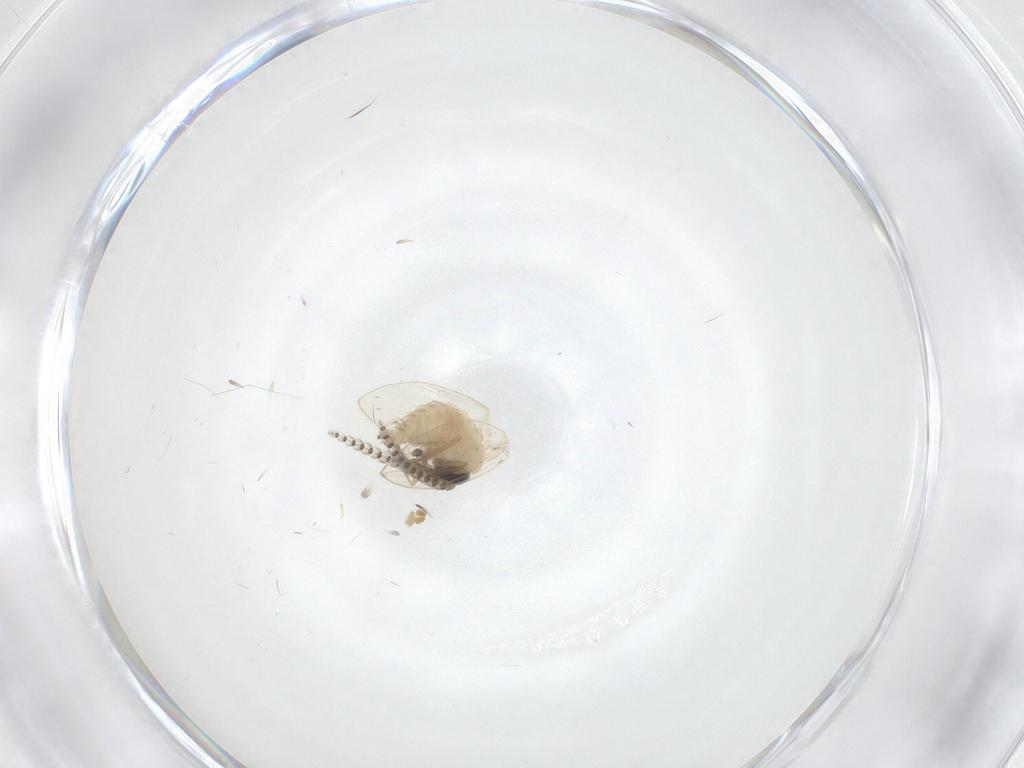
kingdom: Animalia
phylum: Arthropoda
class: Insecta
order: Diptera
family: Psychodidae
